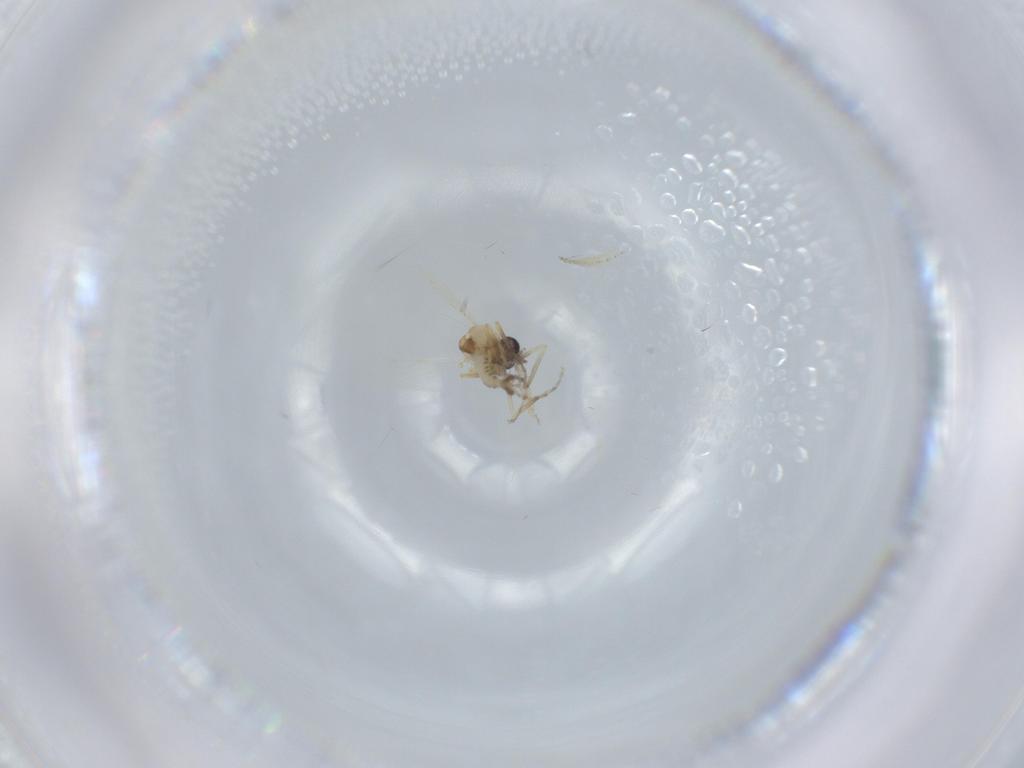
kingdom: Animalia
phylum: Arthropoda
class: Insecta
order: Diptera
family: Ceratopogonidae
